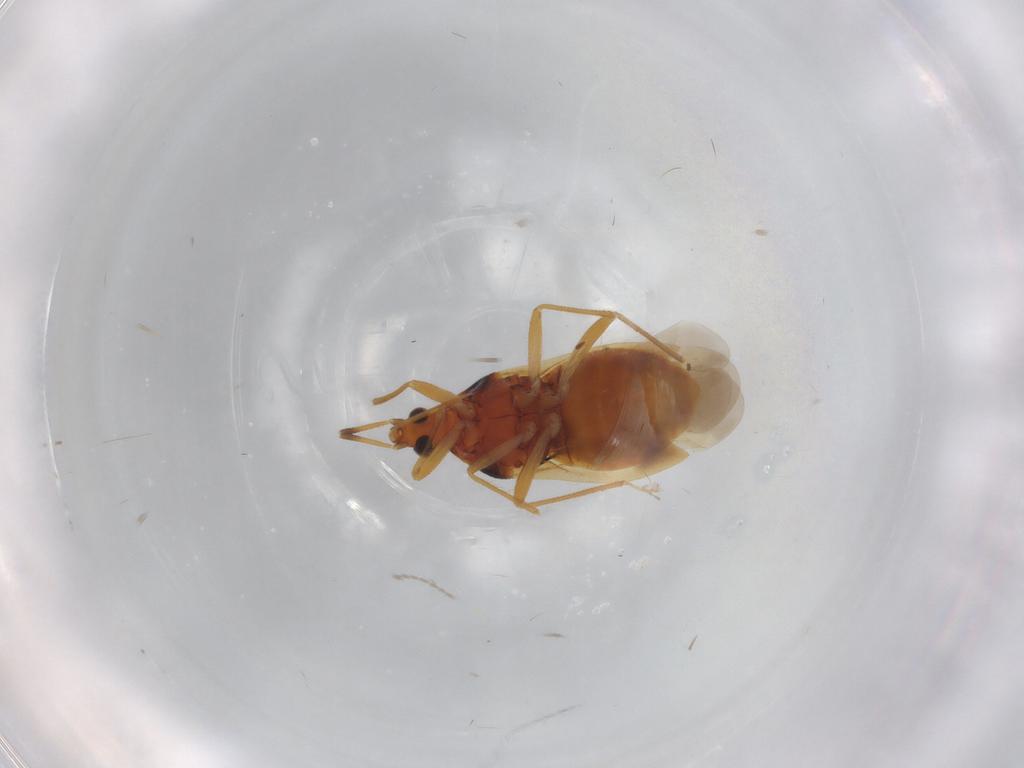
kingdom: Animalia
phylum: Arthropoda
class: Insecta
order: Hemiptera
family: Anthocoridae
